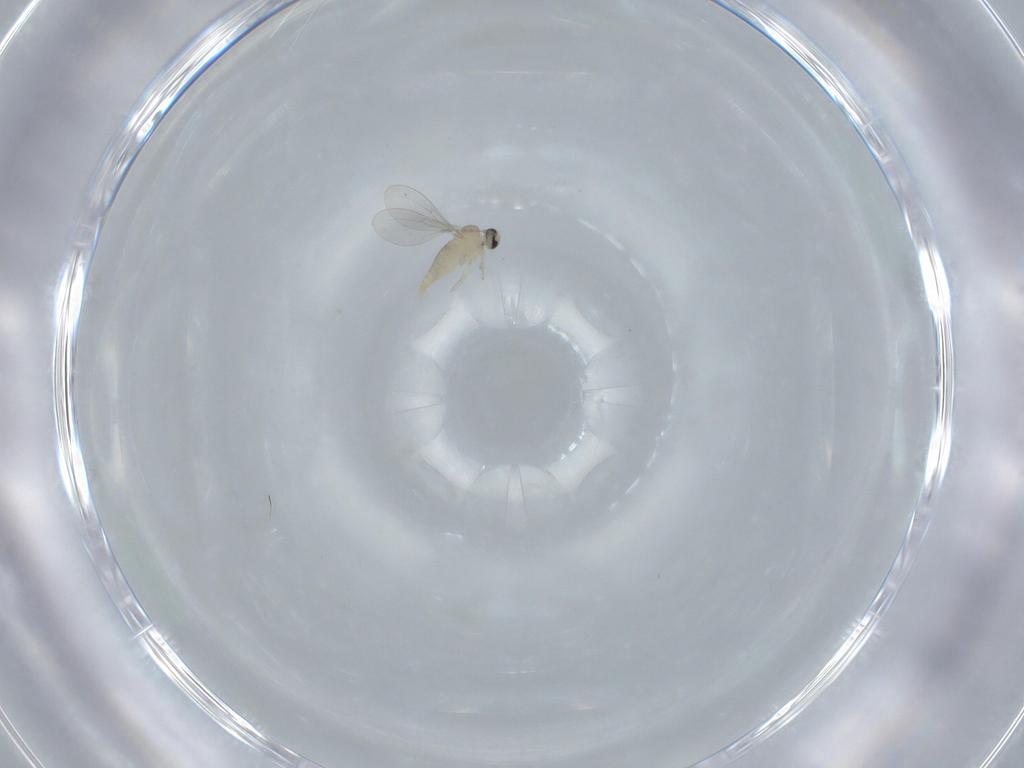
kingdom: Animalia
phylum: Arthropoda
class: Insecta
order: Diptera
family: Cecidomyiidae
